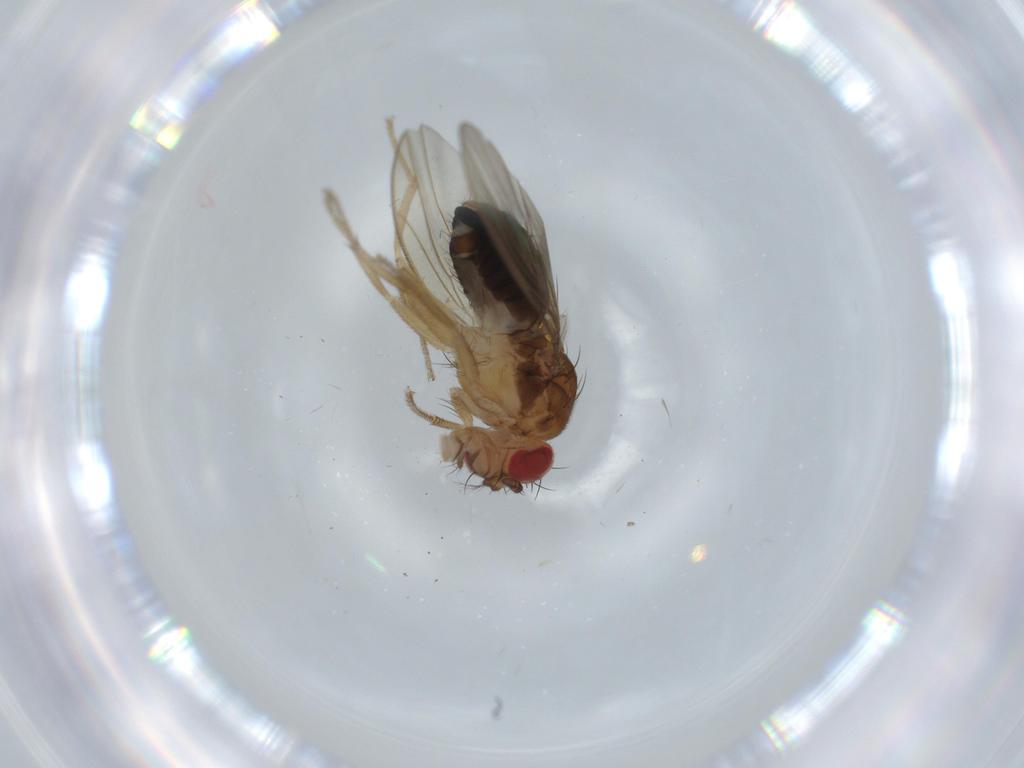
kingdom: Animalia
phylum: Arthropoda
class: Insecta
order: Diptera
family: Drosophilidae
